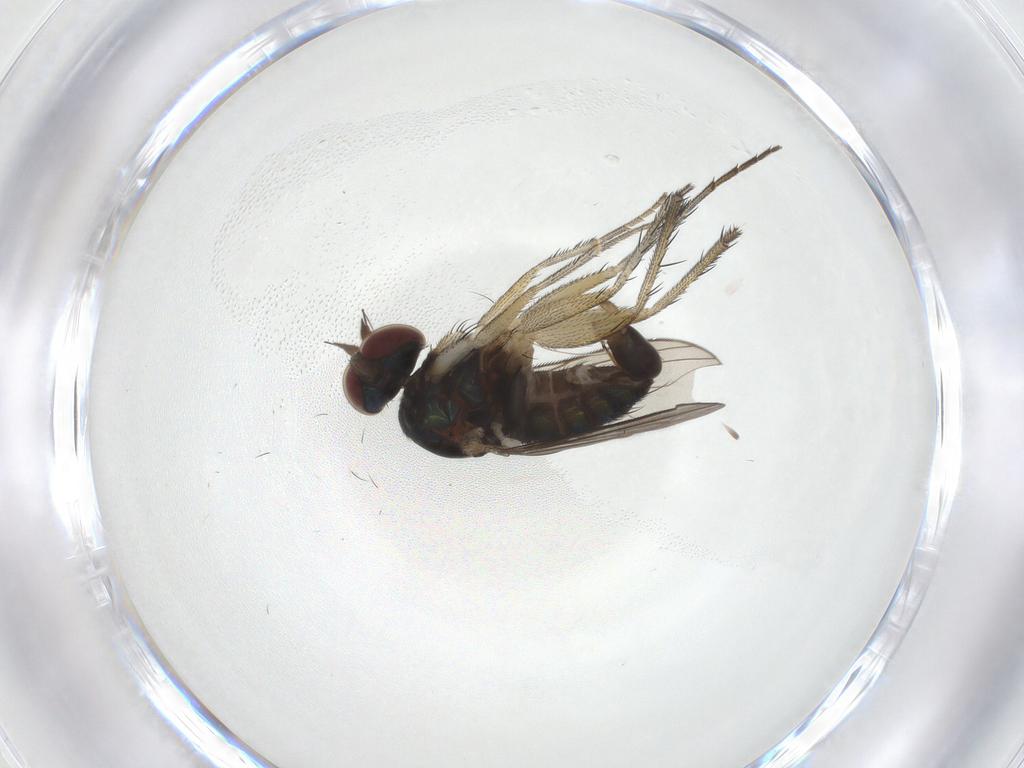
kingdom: Animalia
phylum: Arthropoda
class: Insecta
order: Diptera
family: Dolichopodidae
